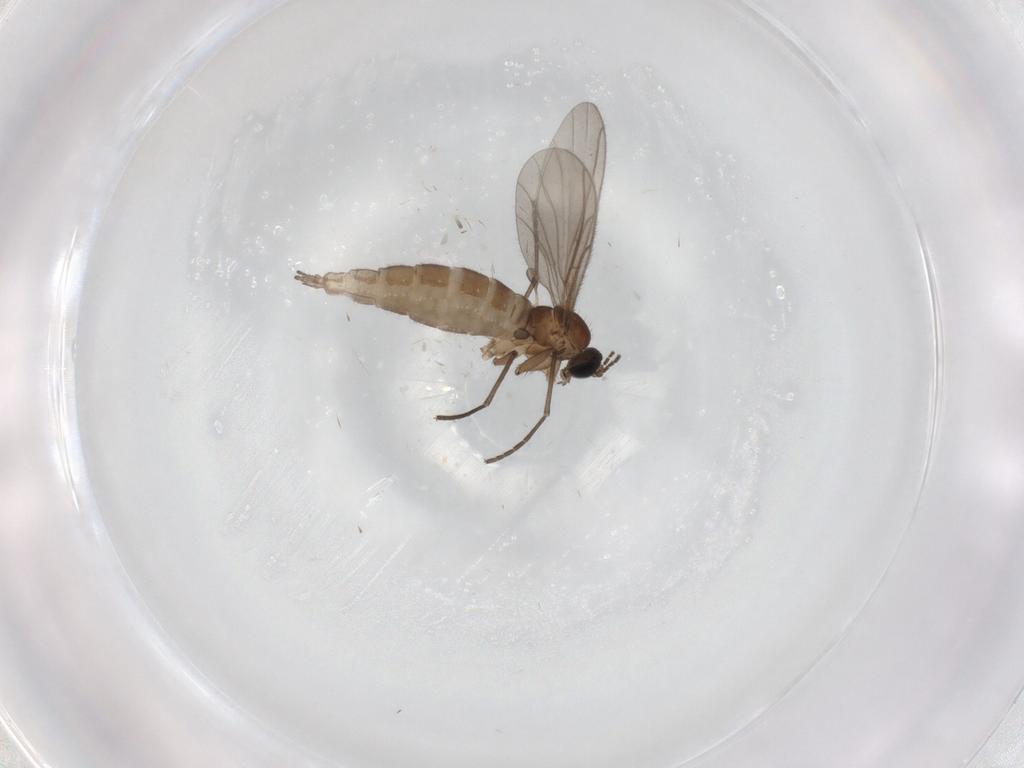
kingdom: Animalia
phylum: Arthropoda
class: Insecta
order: Diptera
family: Sciaridae
